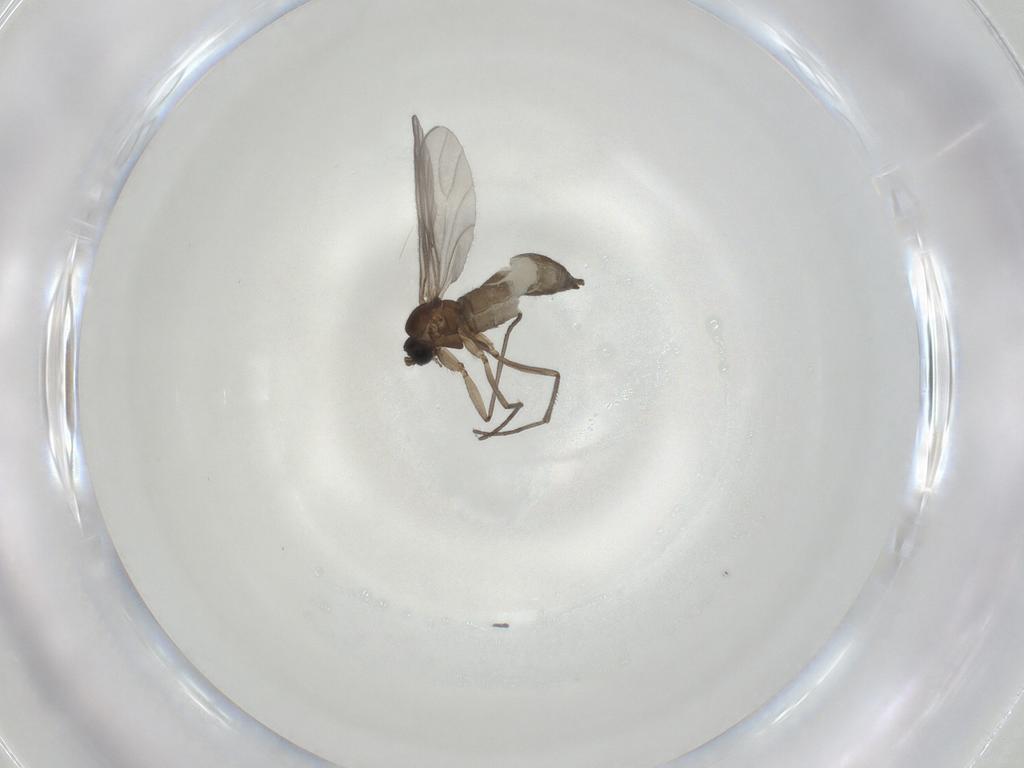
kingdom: Animalia
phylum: Arthropoda
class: Insecta
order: Diptera
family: Sciaridae
